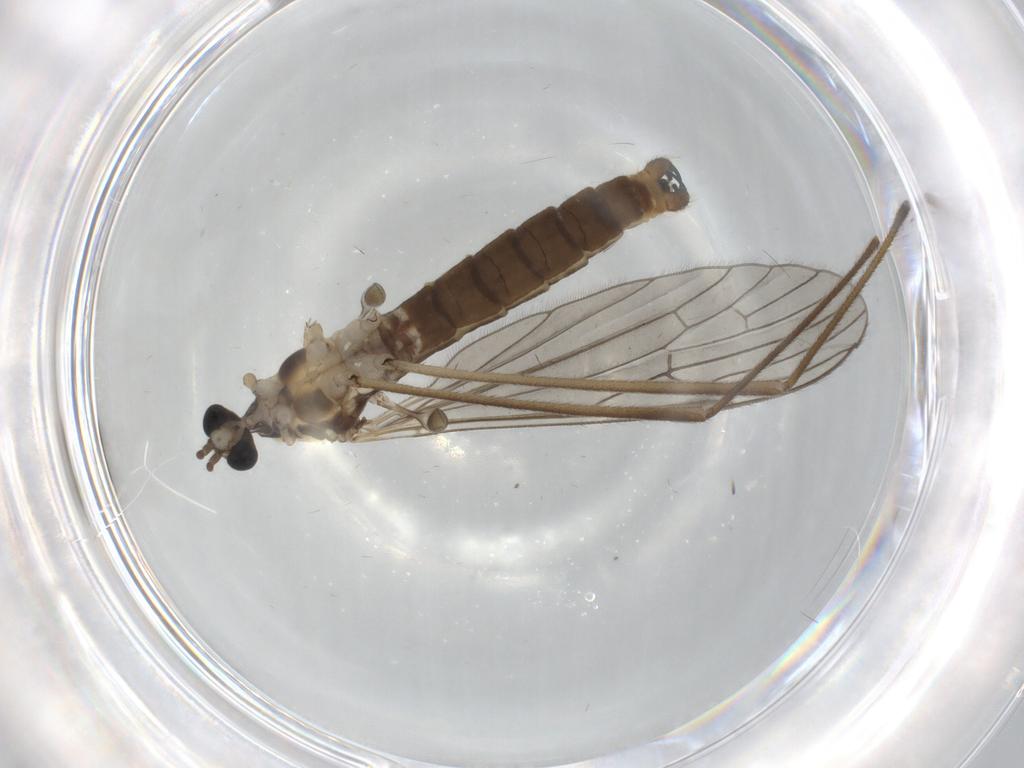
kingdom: Animalia
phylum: Arthropoda
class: Insecta
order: Diptera
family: Limoniidae
